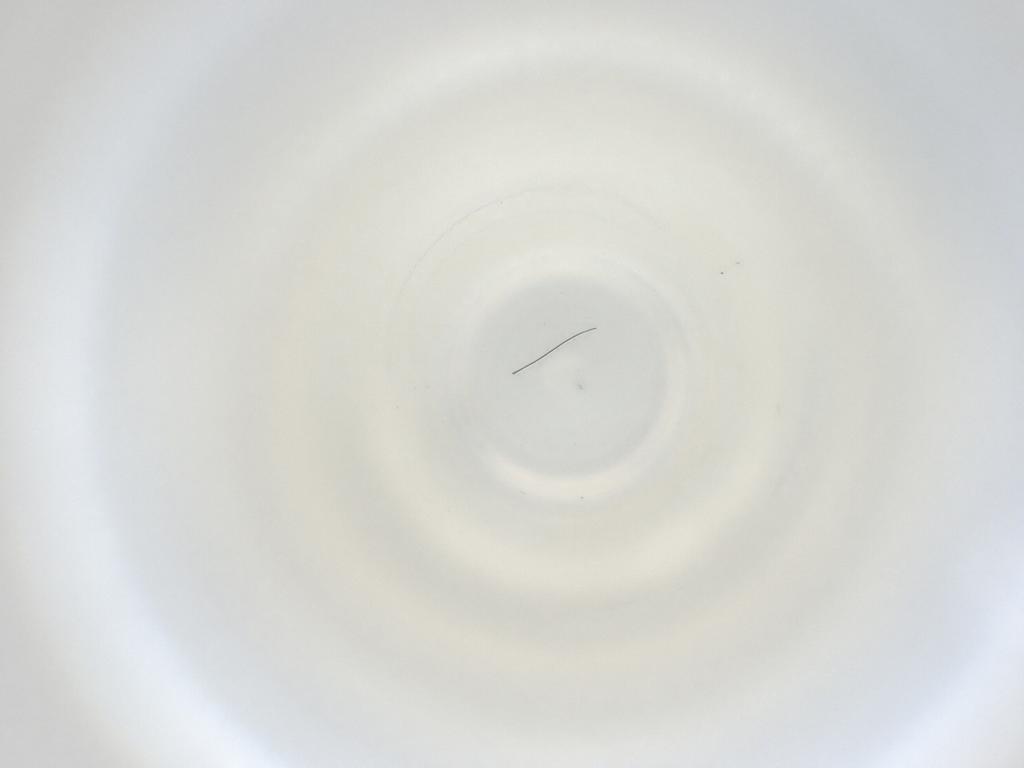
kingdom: Animalia
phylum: Arthropoda
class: Insecta
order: Diptera
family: Cecidomyiidae
